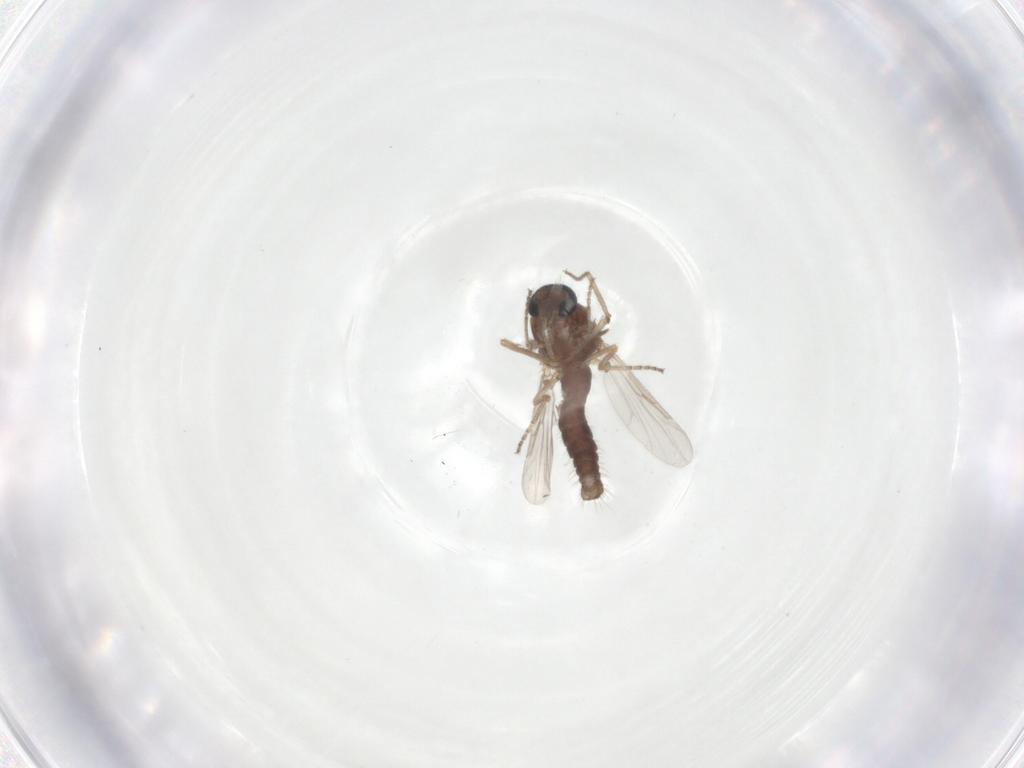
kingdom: Animalia
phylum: Arthropoda
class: Insecta
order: Diptera
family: Ceratopogonidae
